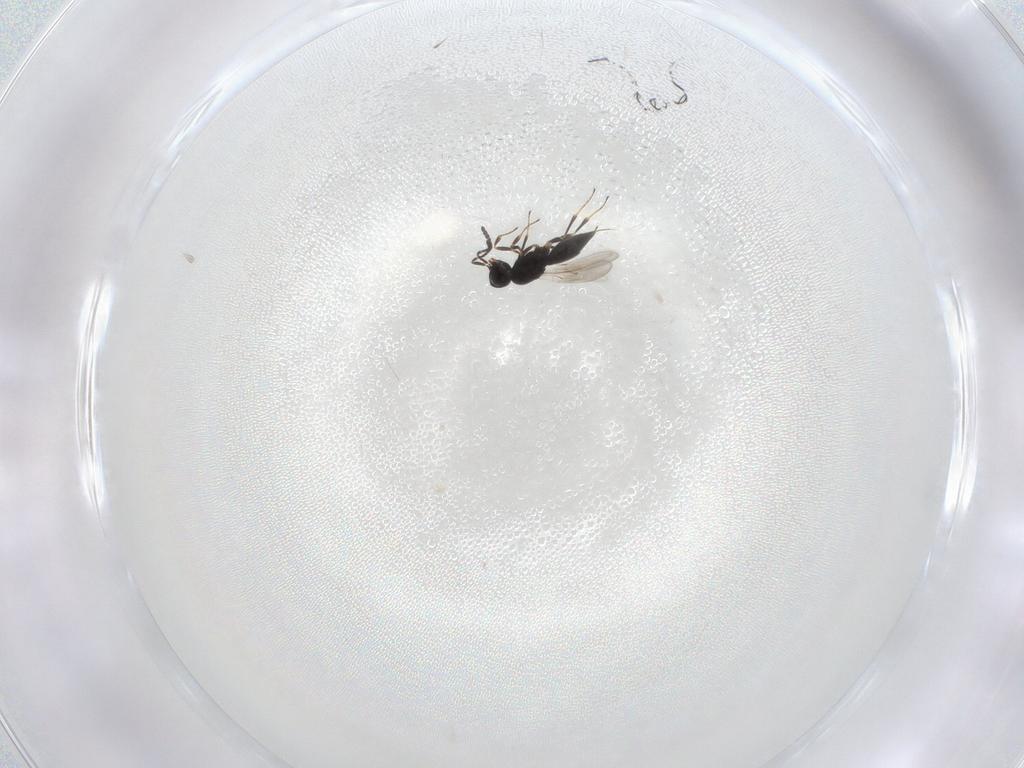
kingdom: Animalia
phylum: Arthropoda
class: Insecta
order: Hymenoptera
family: Scelionidae
